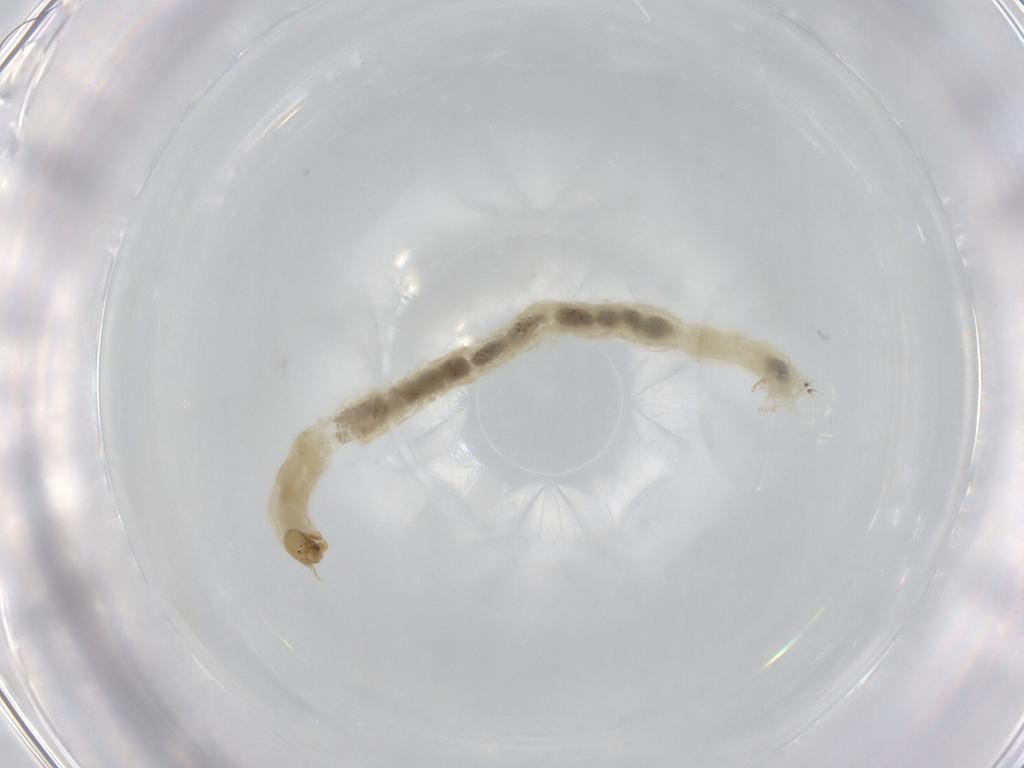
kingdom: Animalia
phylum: Arthropoda
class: Insecta
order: Diptera
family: Chironomidae
